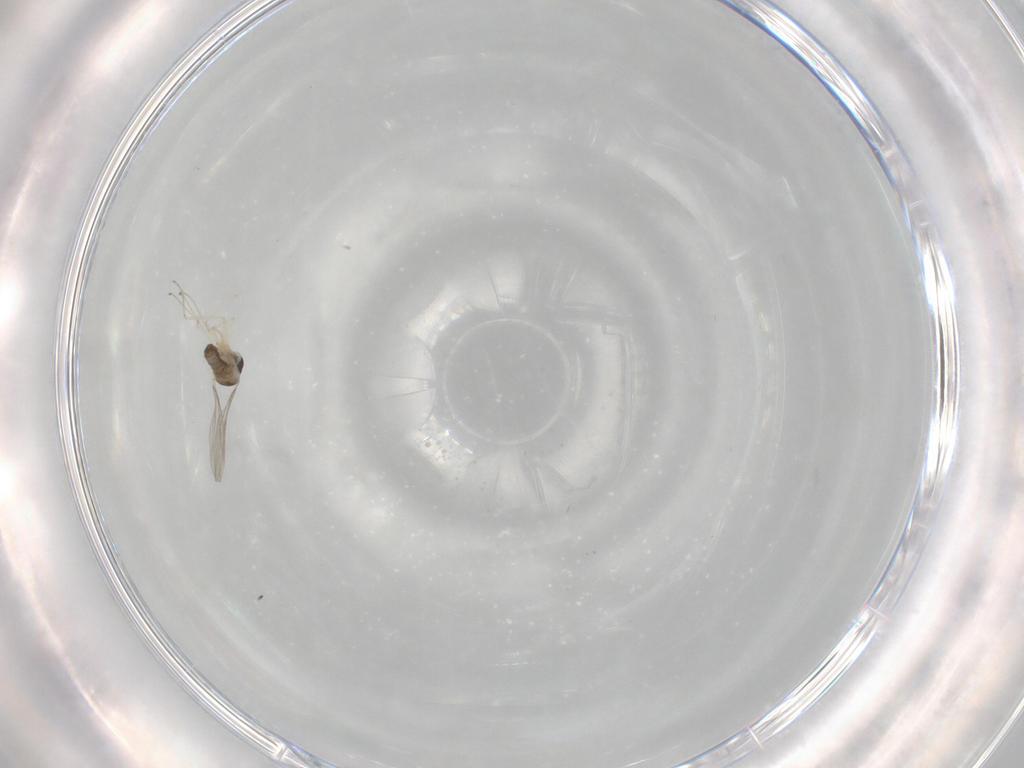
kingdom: Animalia
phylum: Arthropoda
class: Insecta
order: Diptera
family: Cecidomyiidae
